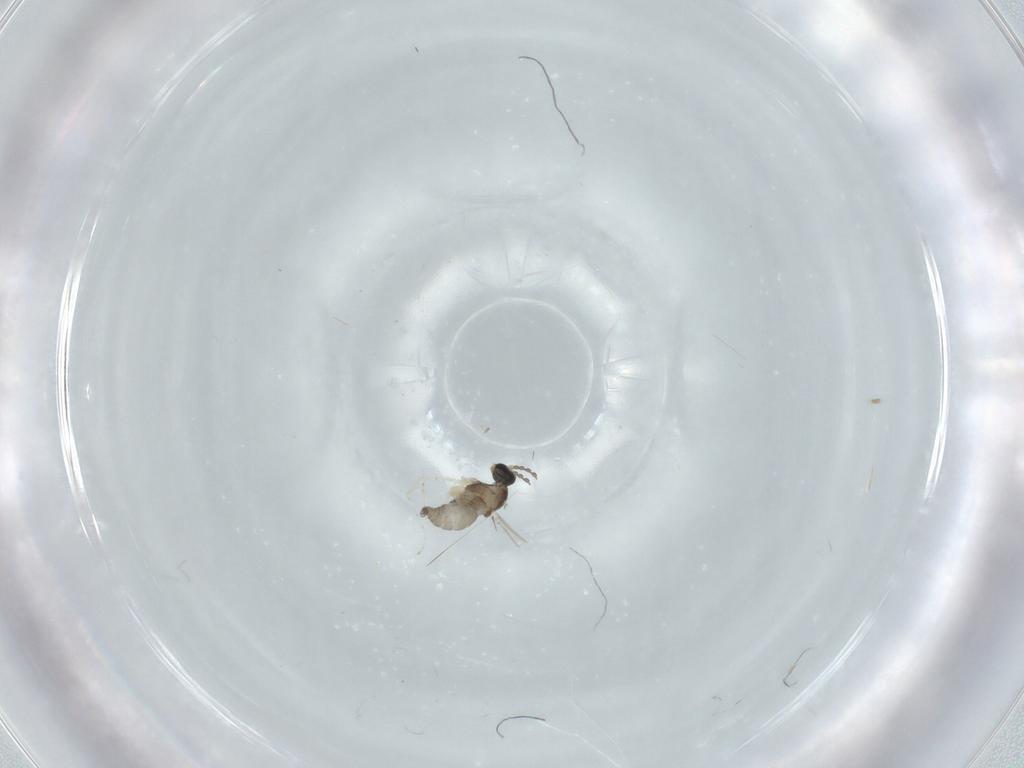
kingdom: Animalia
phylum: Arthropoda
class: Insecta
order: Diptera
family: Cecidomyiidae
